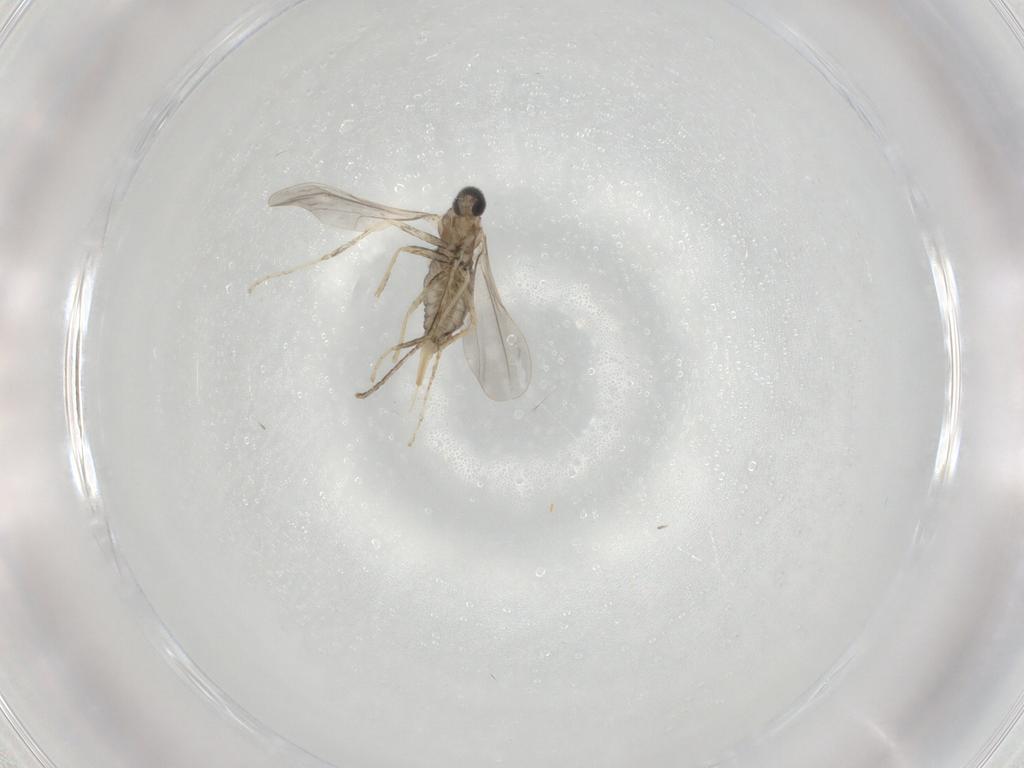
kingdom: Animalia
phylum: Arthropoda
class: Insecta
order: Diptera
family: Cecidomyiidae
